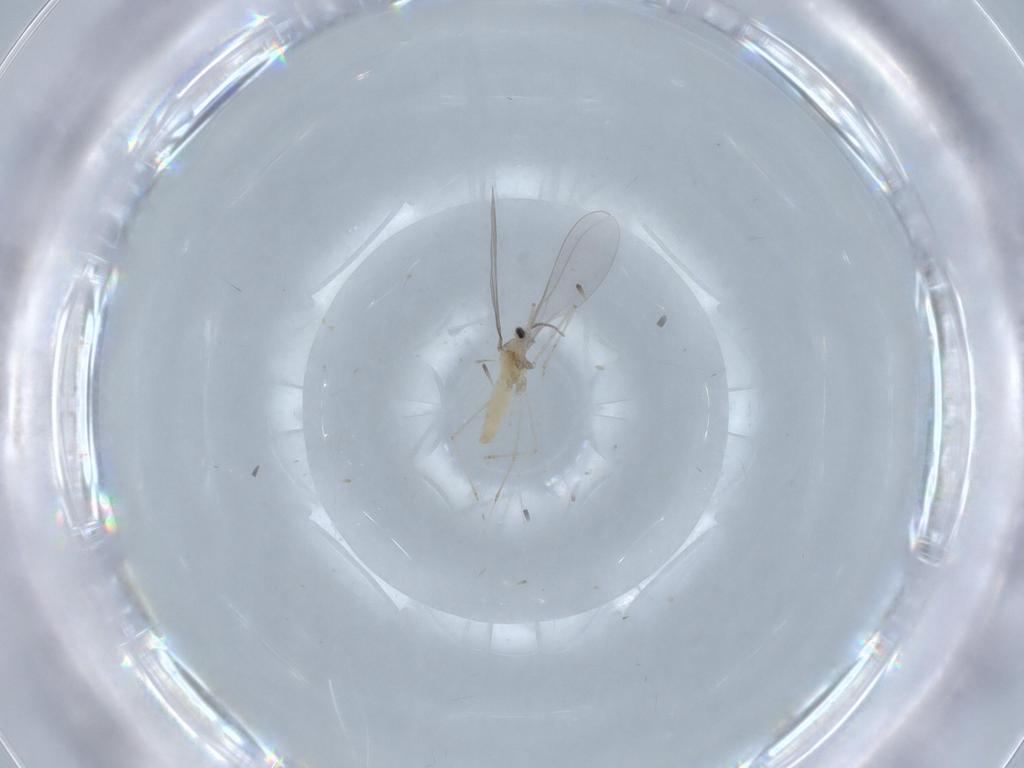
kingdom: Animalia
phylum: Arthropoda
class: Insecta
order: Diptera
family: Cecidomyiidae
